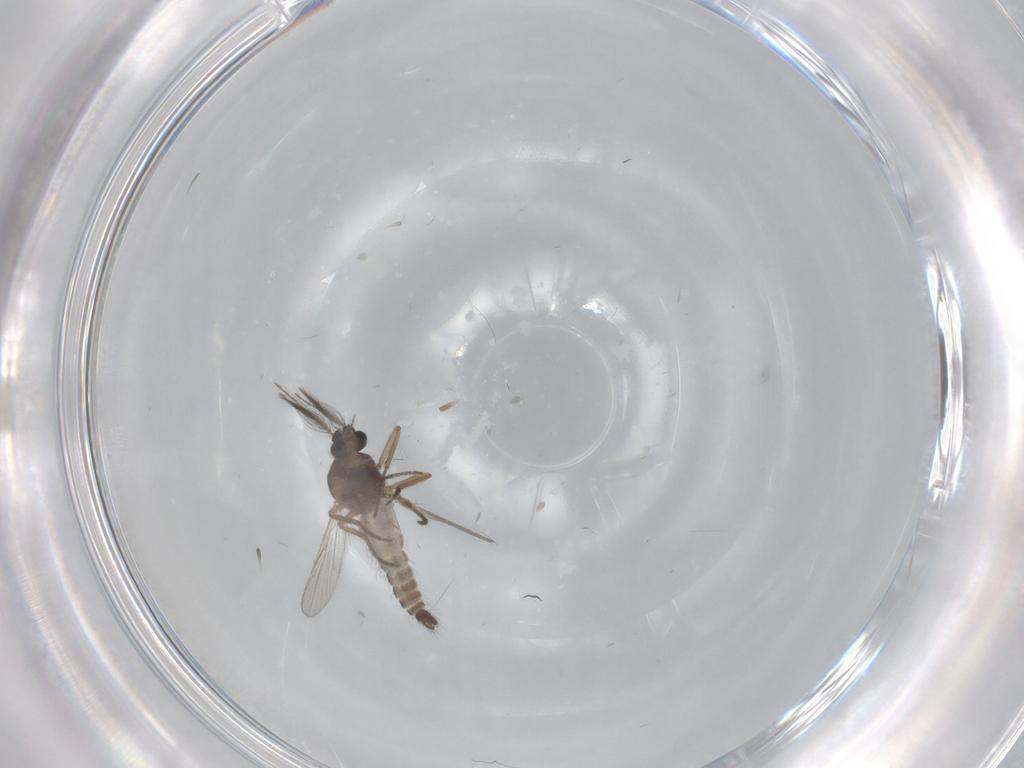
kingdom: Animalia
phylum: Arthropoda
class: Insecta
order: Diptera
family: Ceratopogonidae
